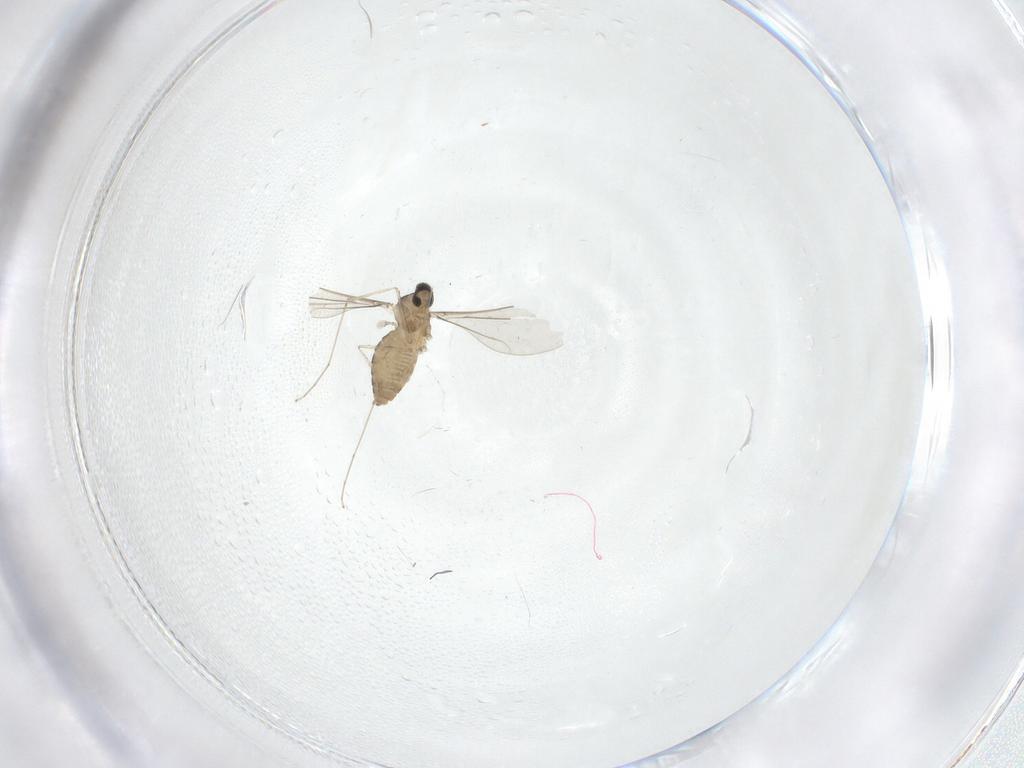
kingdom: Animalia
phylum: Arthropoda
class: Insecta
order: Diptera
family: Cecidomyiidae
